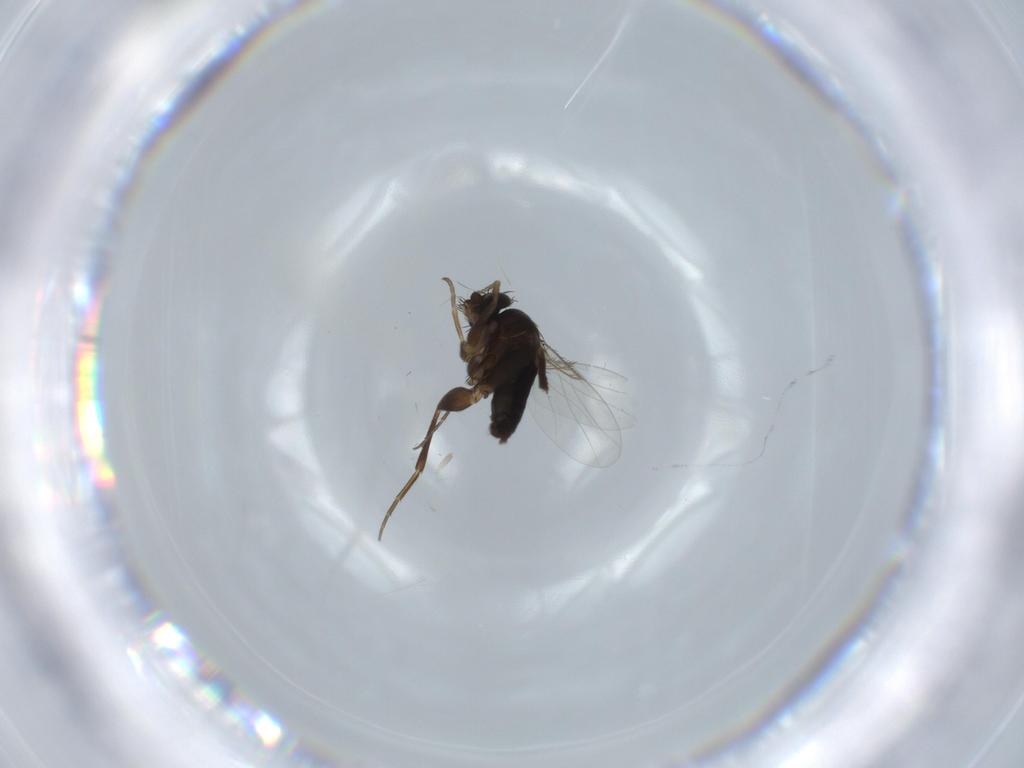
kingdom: Animalia
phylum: Arthropoda
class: Insecta
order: Diptera
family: Phoridae
